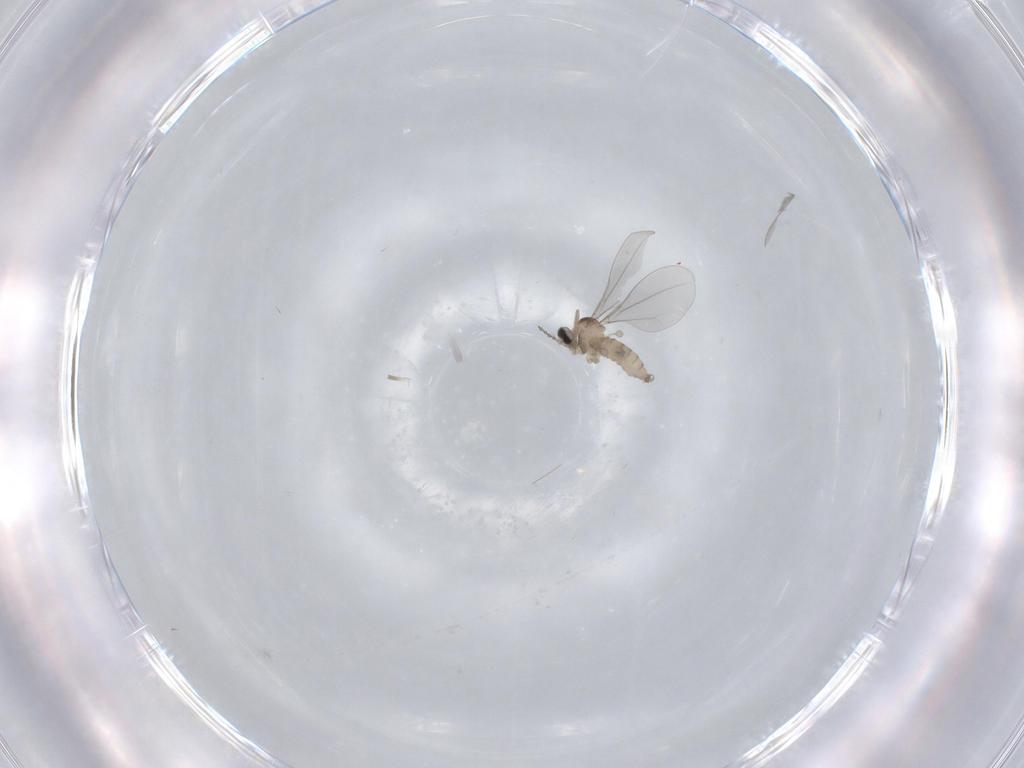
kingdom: Animalia
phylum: Arthropoda
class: Insecta
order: Diptera
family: Cecidomyiidae
